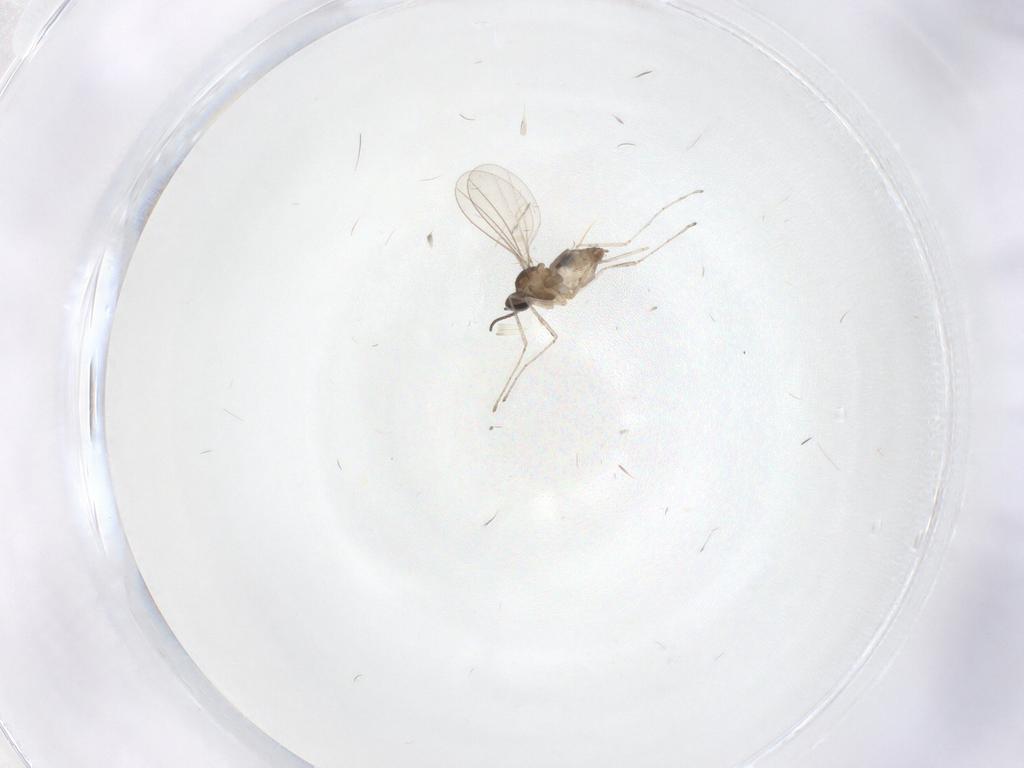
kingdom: Animalia
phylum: Arthropoda
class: Insecta
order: Diptera
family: Cecidomyiidae
